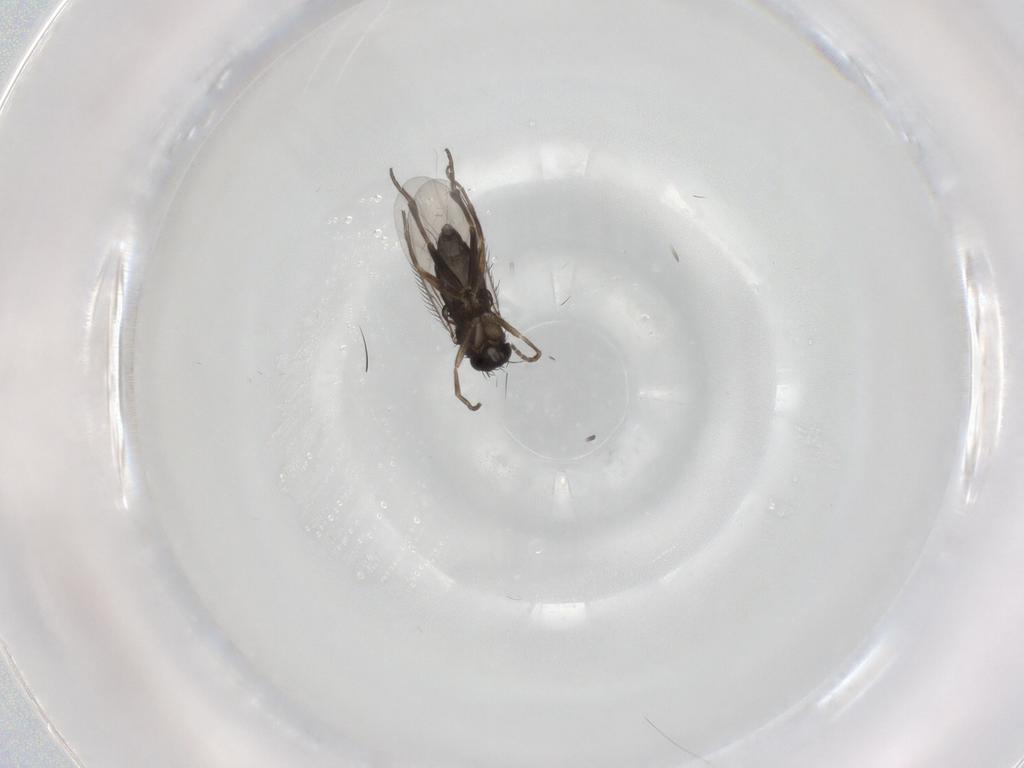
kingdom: Animalia
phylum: Arthropoda
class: Insecta
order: Diptera
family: Phoridae
